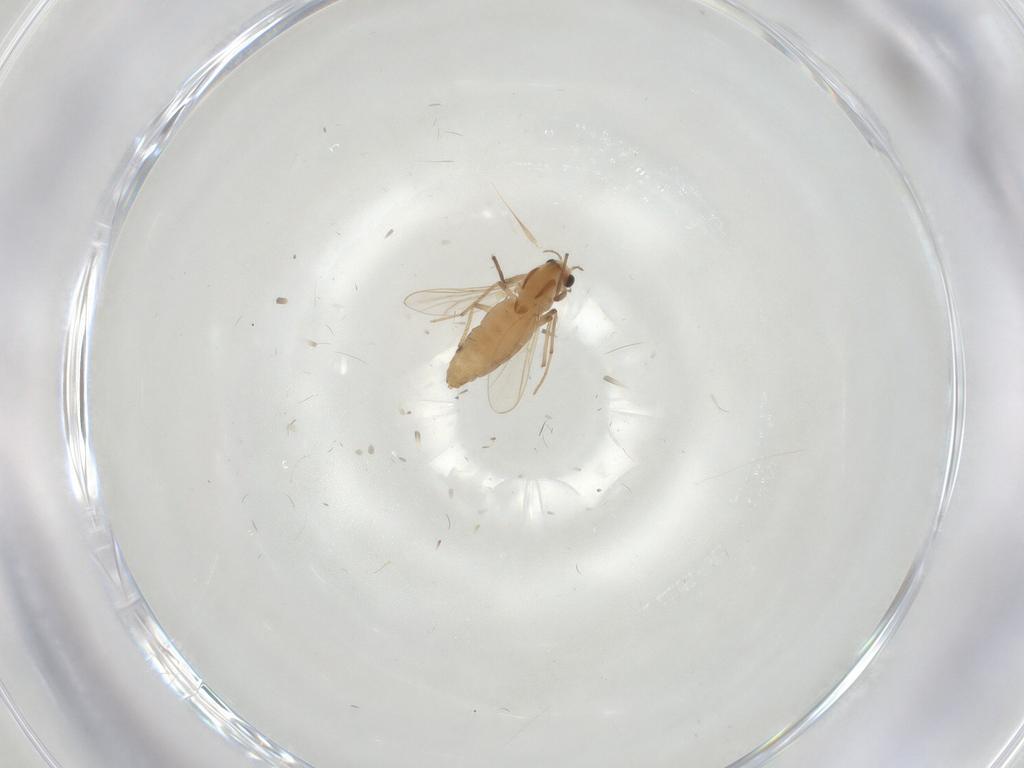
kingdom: Animalia
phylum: Arthropoda
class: Insecta
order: Diptera
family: Chironomidae
